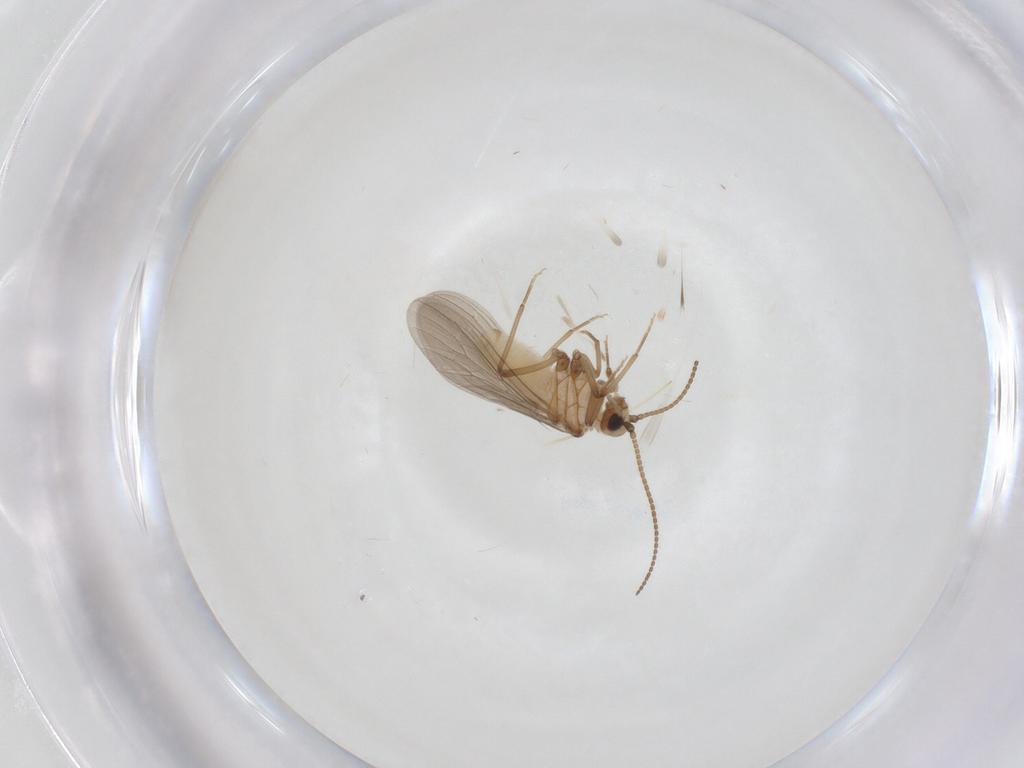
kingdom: Animalia
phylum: Arthropoda
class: Insecta
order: Neuroptera
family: Coniopterygidae
